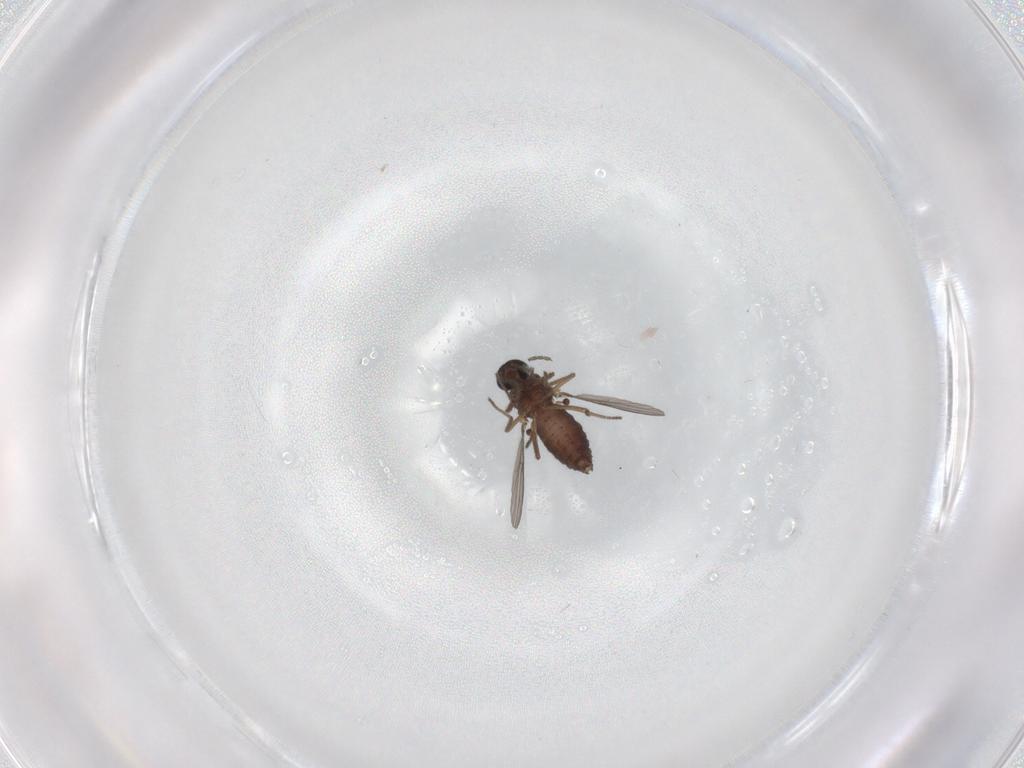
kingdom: Animalia
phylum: Arthropoda
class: Insecta
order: Diptera
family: Ceratopogonidae
